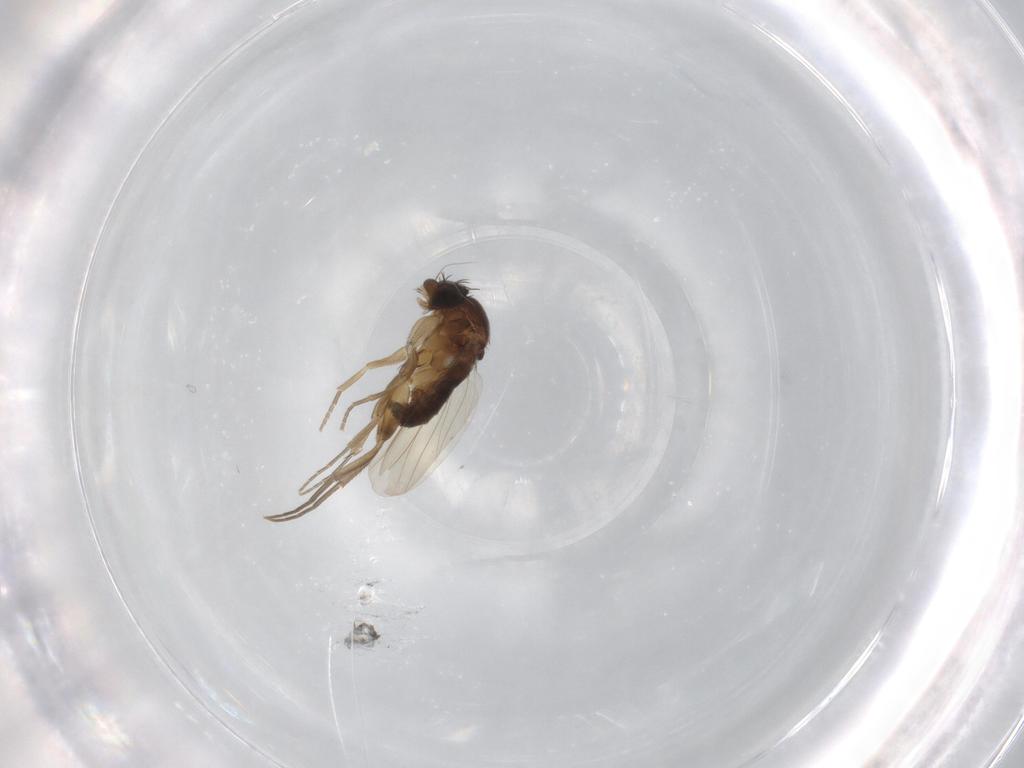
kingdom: Animalia
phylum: Arthropoda
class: Insecta
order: Diptera
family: Phoridae
